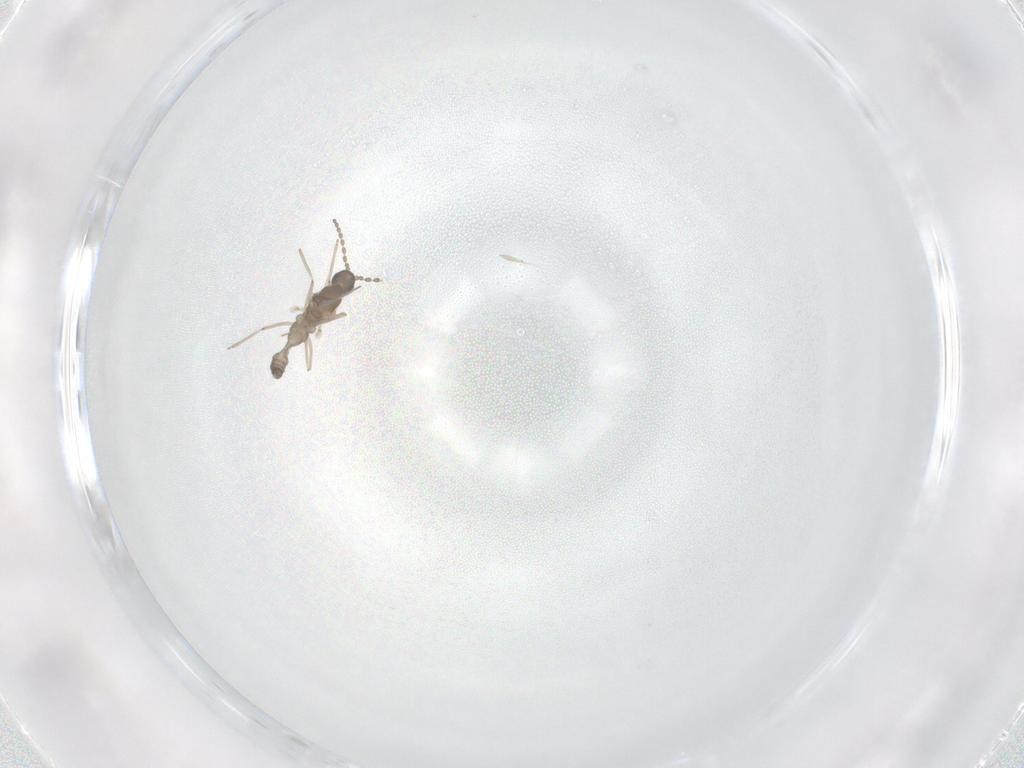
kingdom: Animalia
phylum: Arthropoda
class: Insecta
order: Diptera
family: Cecidomyiidae
